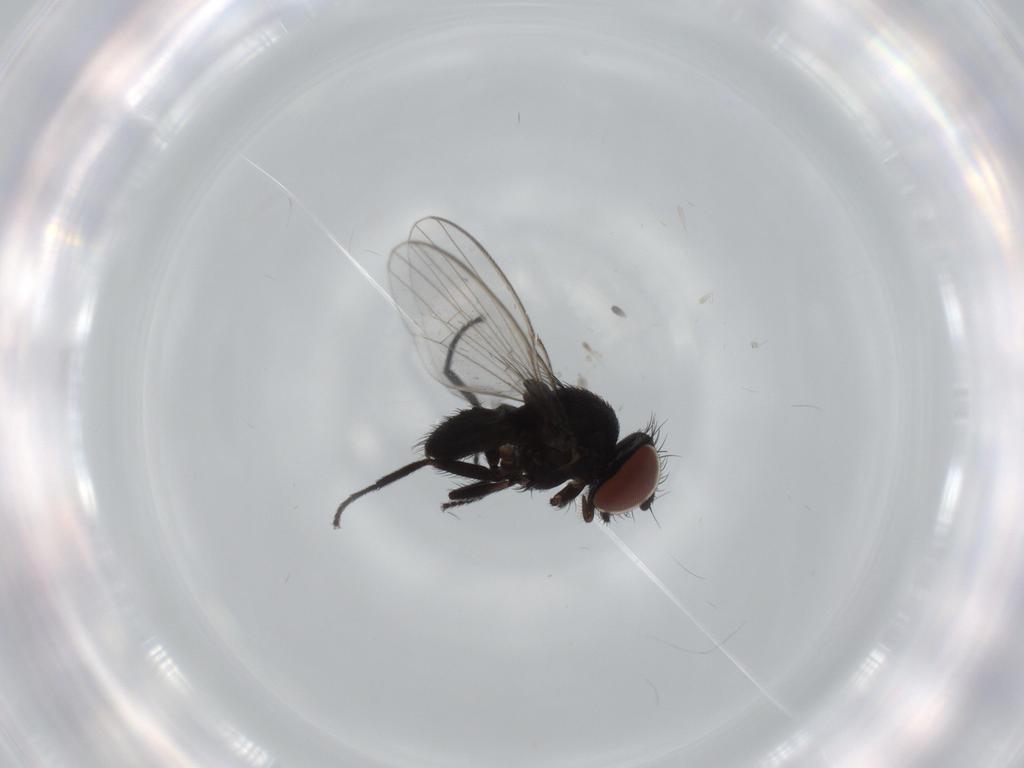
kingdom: Animalia
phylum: Arthropoda
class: Insecta
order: Diptera
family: Milichiidae
